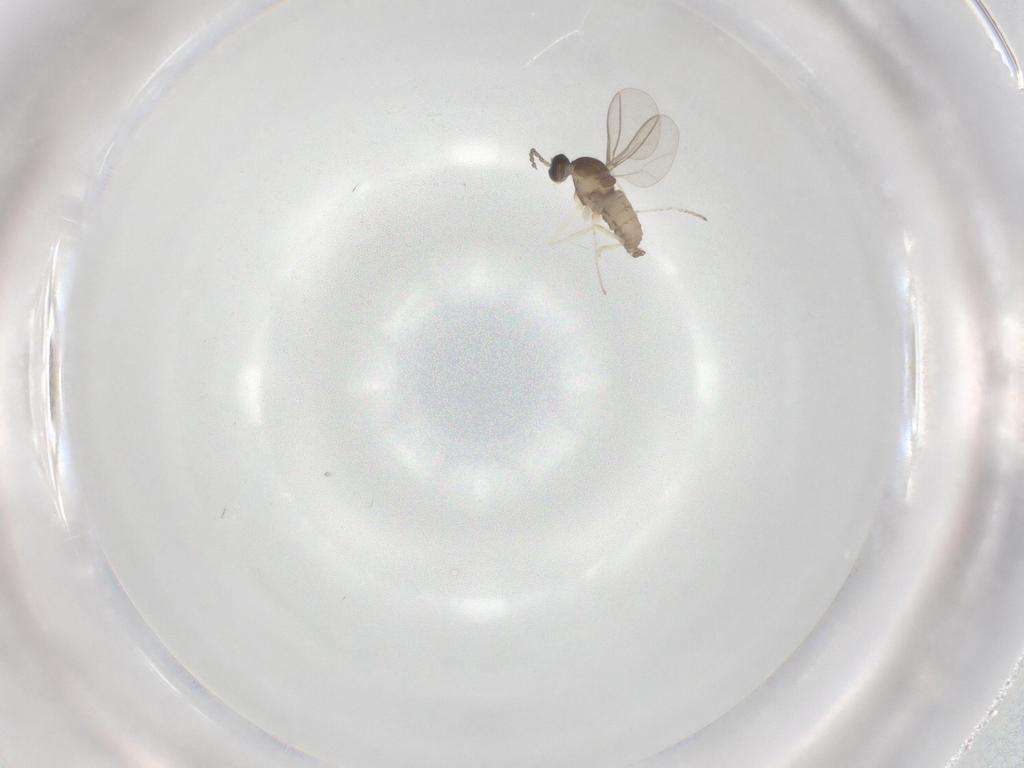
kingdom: Animalia
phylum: Arthropoda
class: Insecta
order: Diptera
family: Cecidomyiidae
